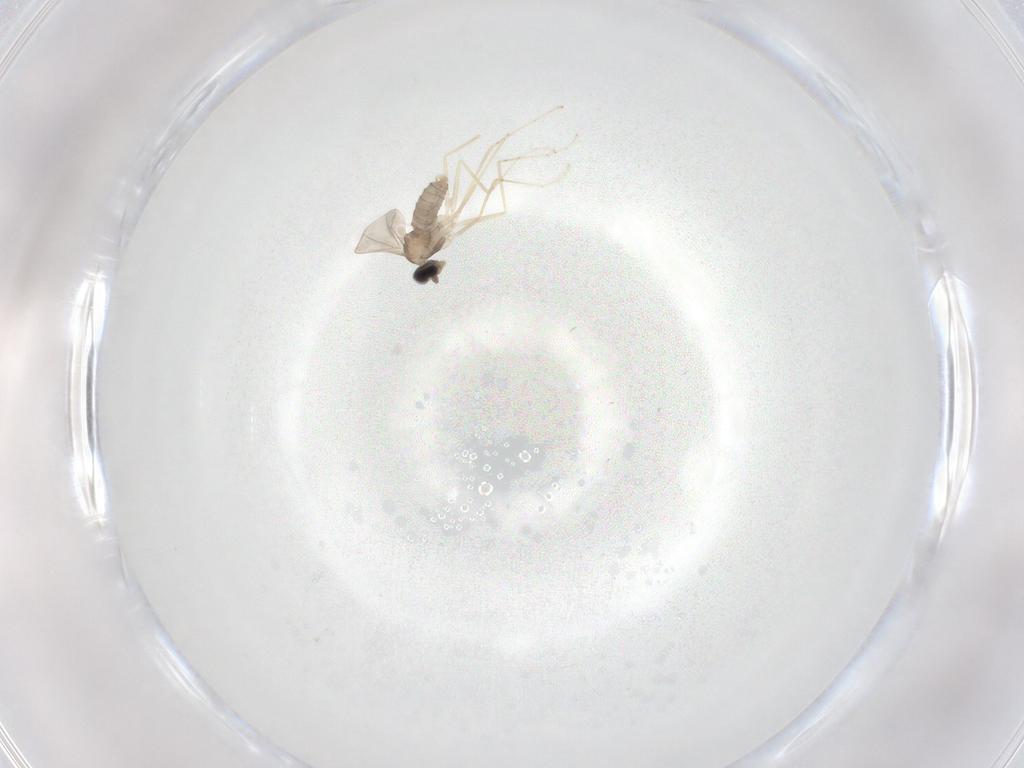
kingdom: Animalia
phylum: Arthropoda
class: Insecta
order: Diptera
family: Cecidomyiidae
